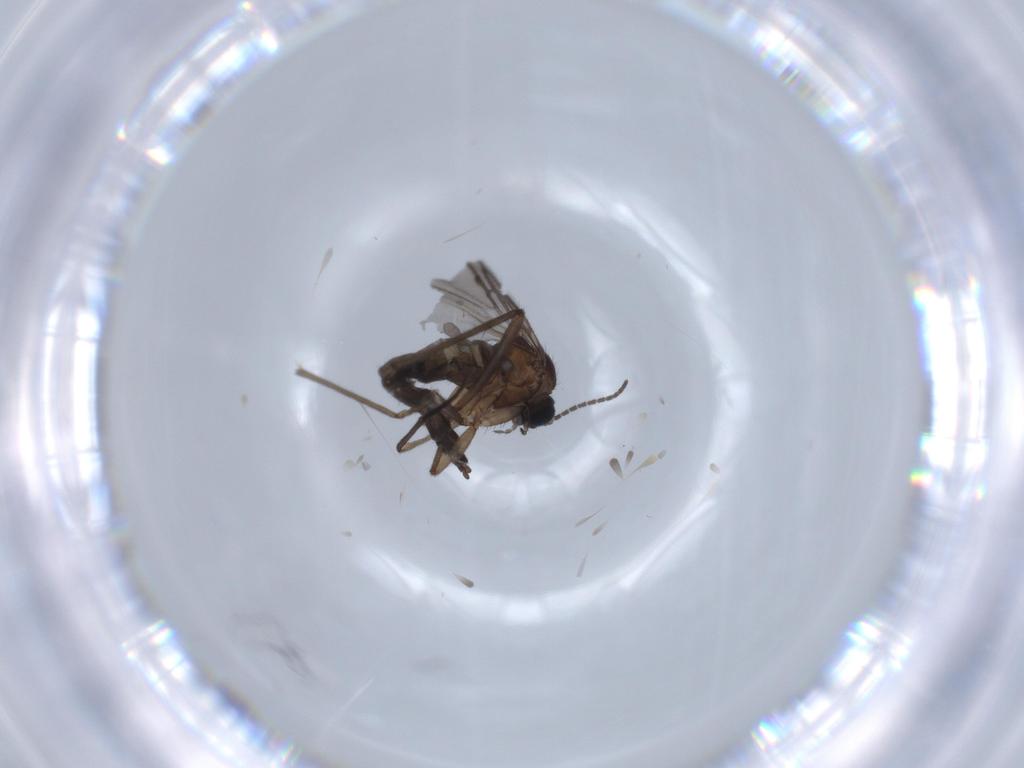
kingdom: Animalia
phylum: Arthropoda
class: Insecta
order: Diptera
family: Sciaridae
